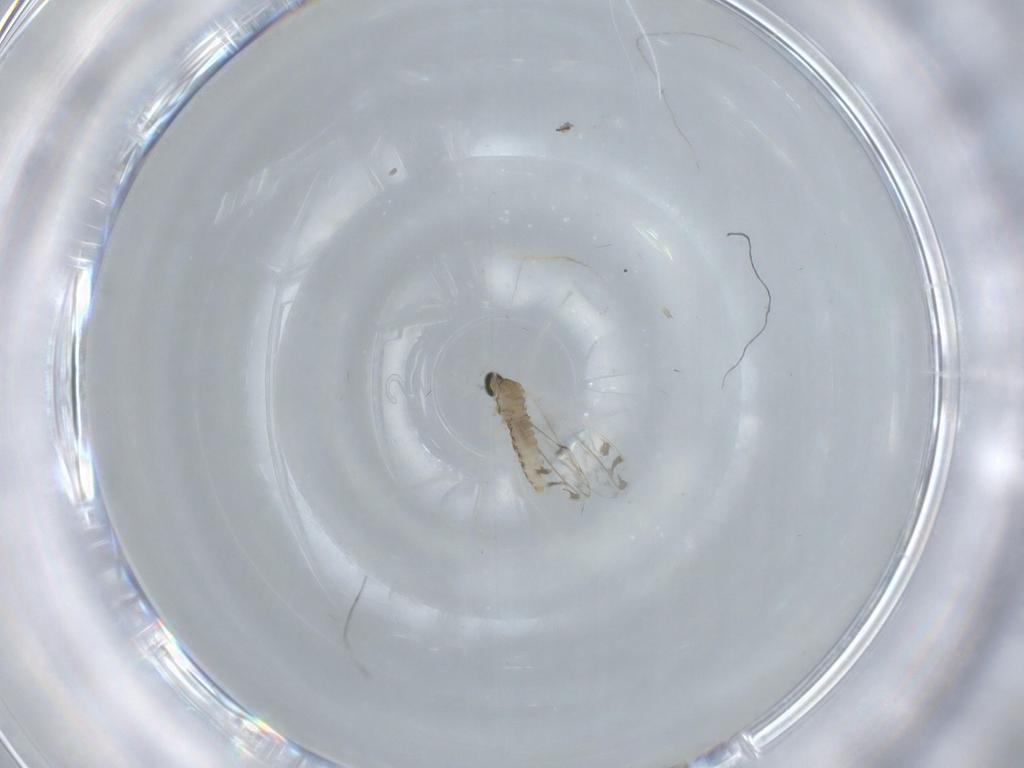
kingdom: Animalia
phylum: Arthropoda
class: Insecta
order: Diptera
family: Cecidomyiidae
